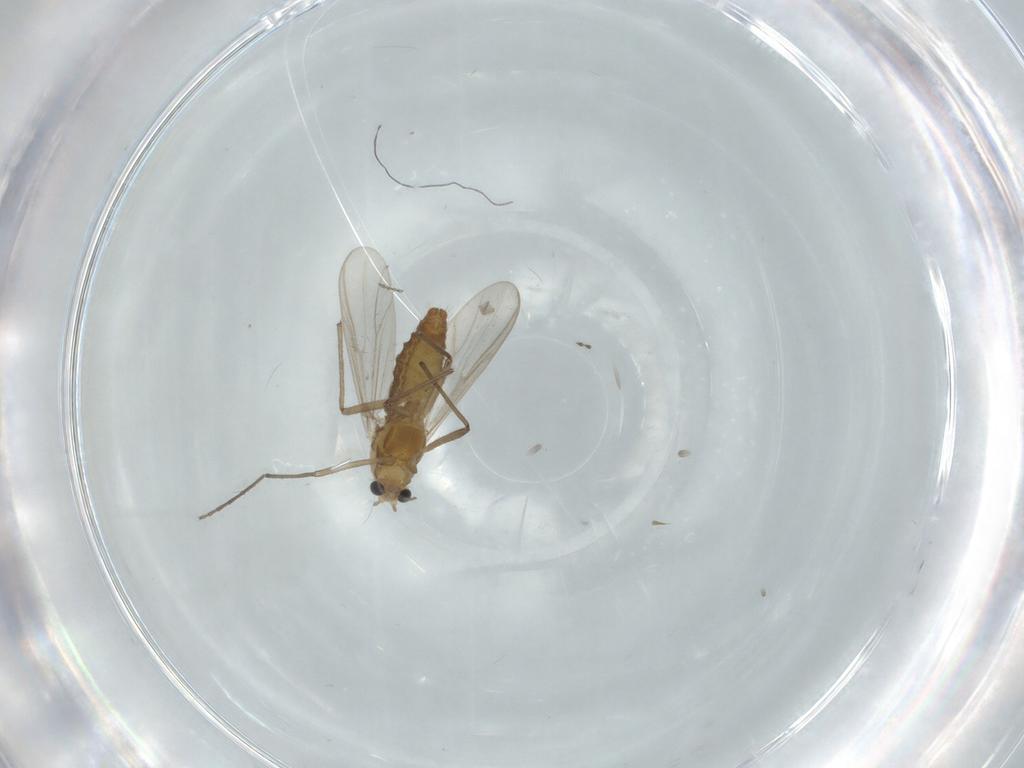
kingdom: Animalia
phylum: Arthropoda
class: Insecta
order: Diptera
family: Chironomidae
